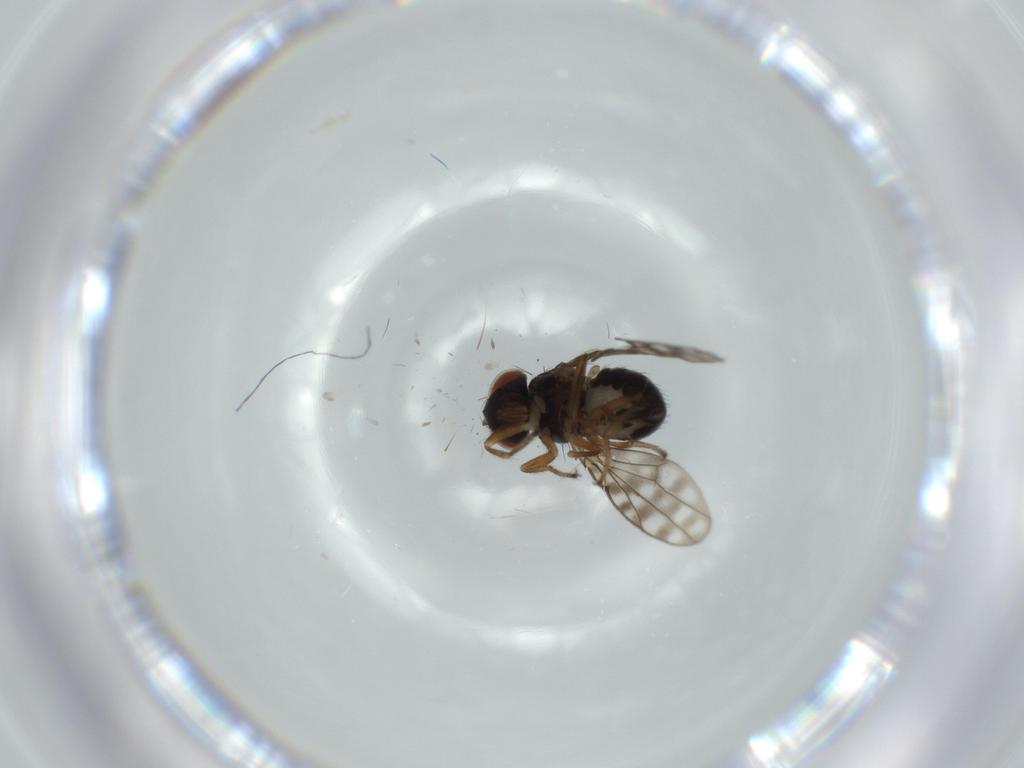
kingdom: Animalia
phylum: Arthropoda
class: Insecta
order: Diptera
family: Ephydridae
